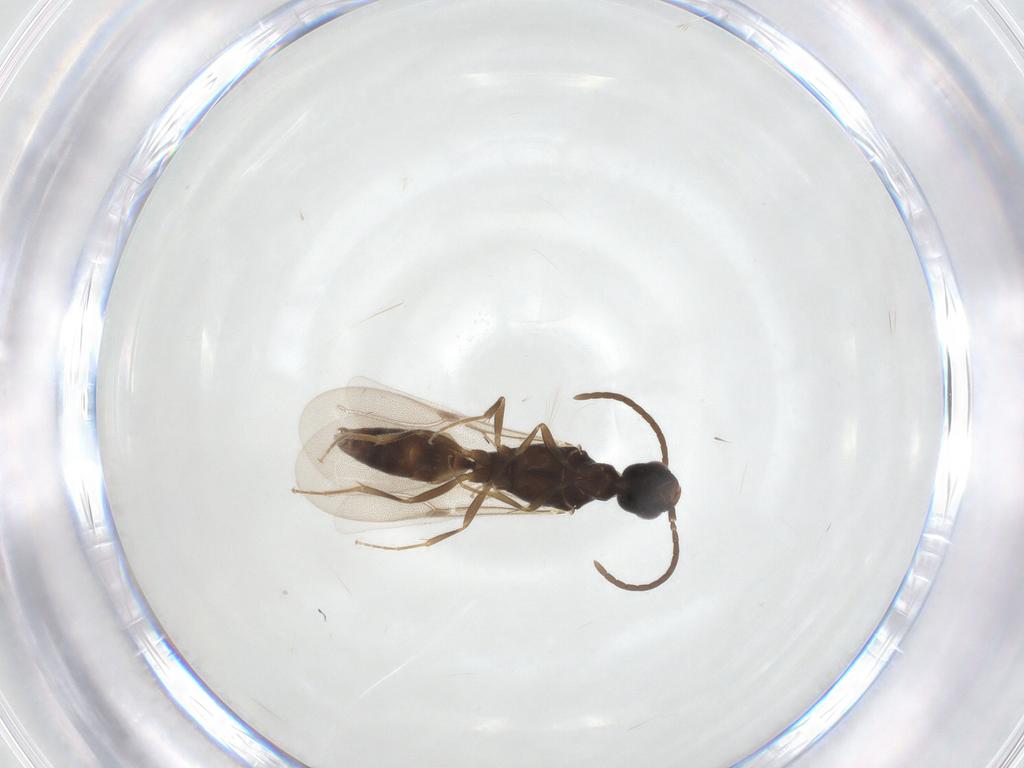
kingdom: Animalia
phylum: Arthropoda
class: Insecta
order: Hymenoptera
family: Bethylidae
